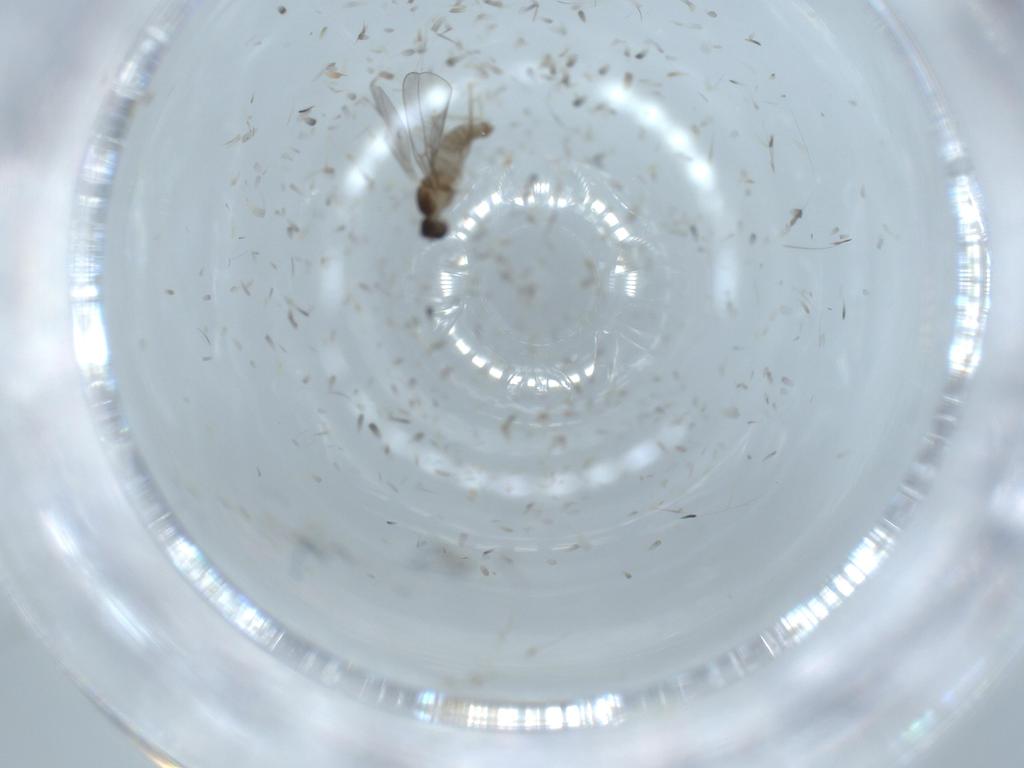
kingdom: Animalia
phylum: Arthropoda
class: Insecta
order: Diptera
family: Cecidomyiidae
